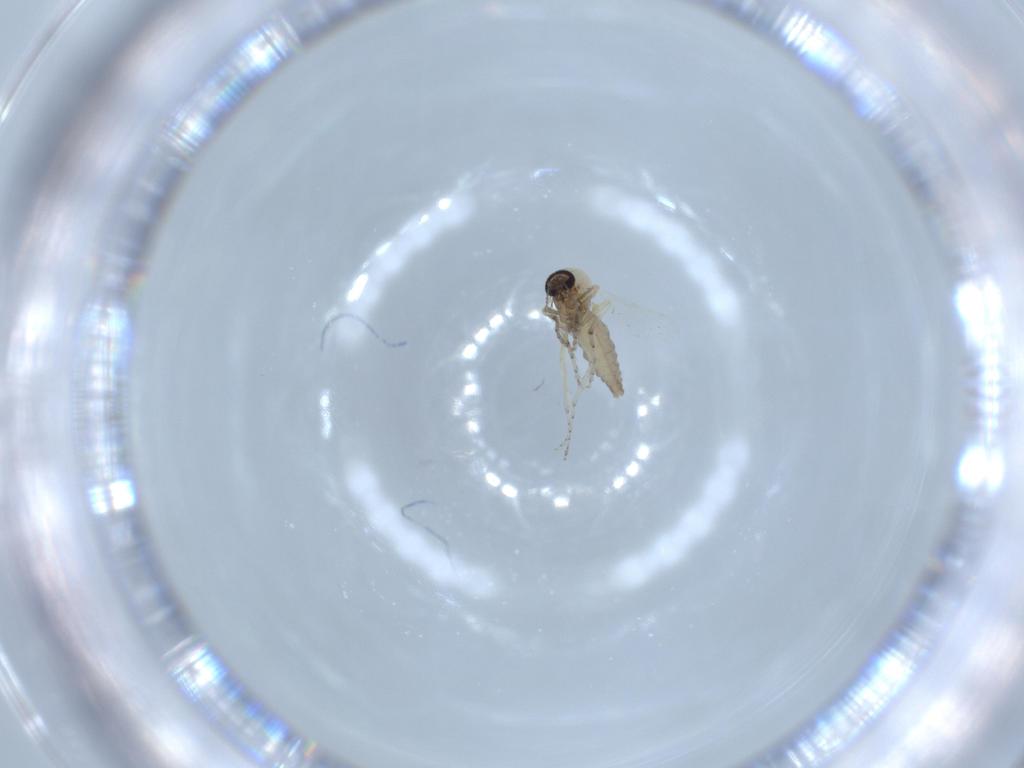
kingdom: Animalia
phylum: Arthropoda
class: Insecta
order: Diptera
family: Ceratopogonidae
